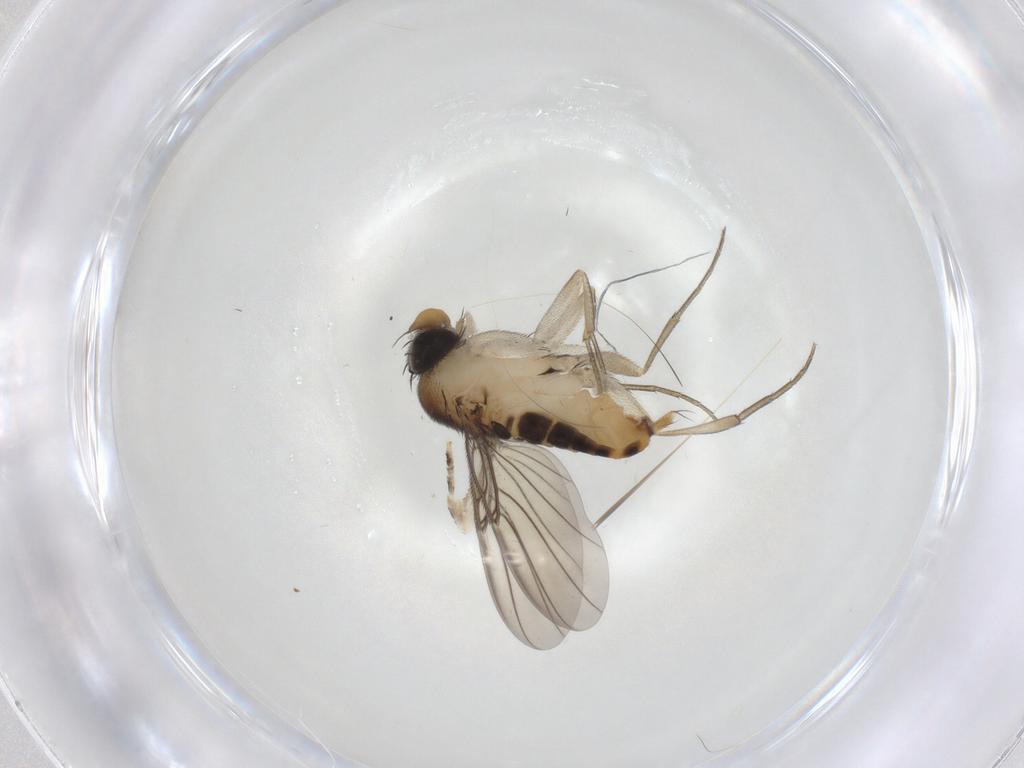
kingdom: Animalia
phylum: Arthropoda
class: Insecta
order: Diptera
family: Phoridae
